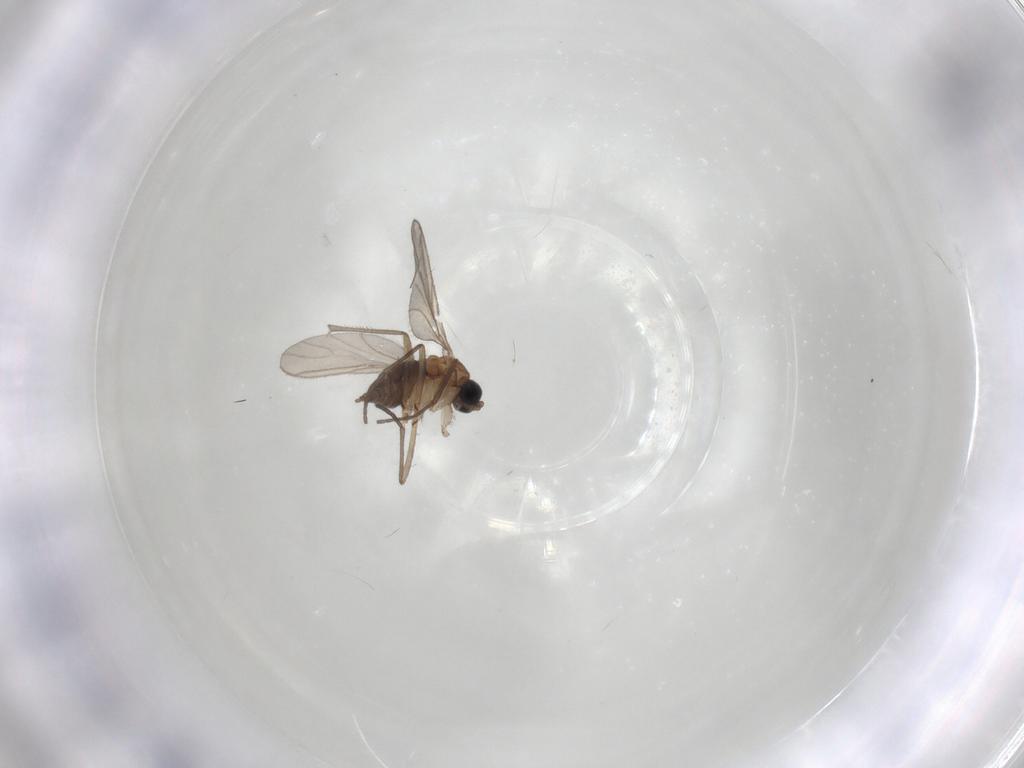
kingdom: Animalia
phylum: Arthropoda
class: Insecta
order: Diptera
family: Sciaridae
